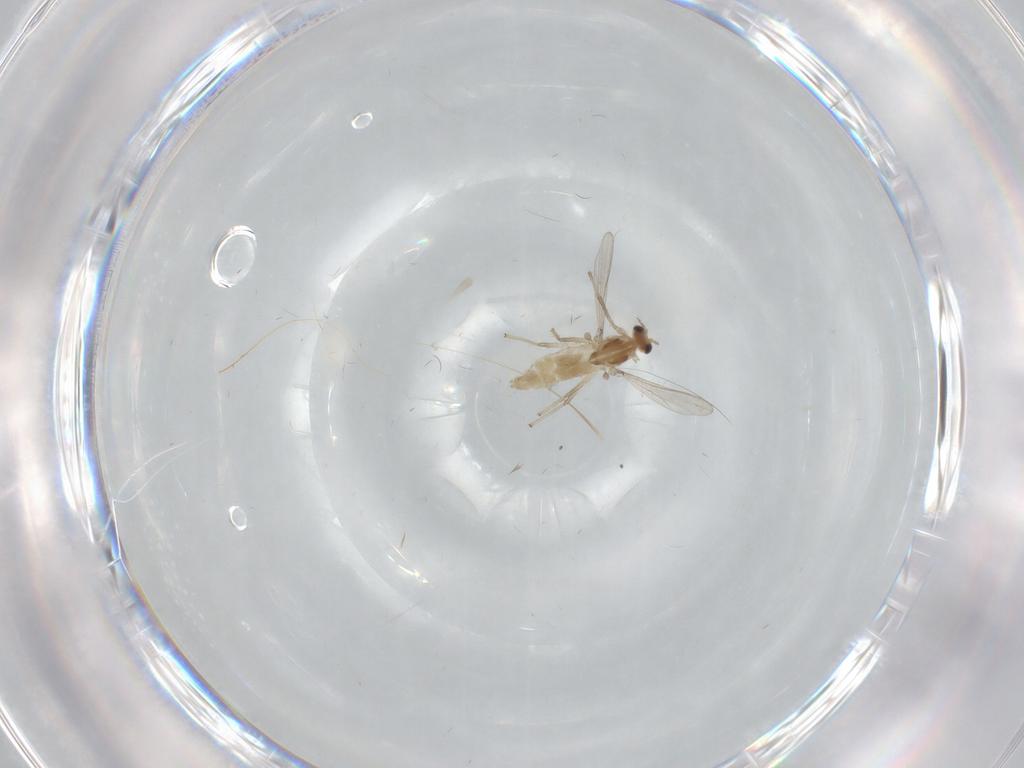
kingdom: Animalia
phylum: Arthropoda
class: Insecta
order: Diptera
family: Chironomidae
